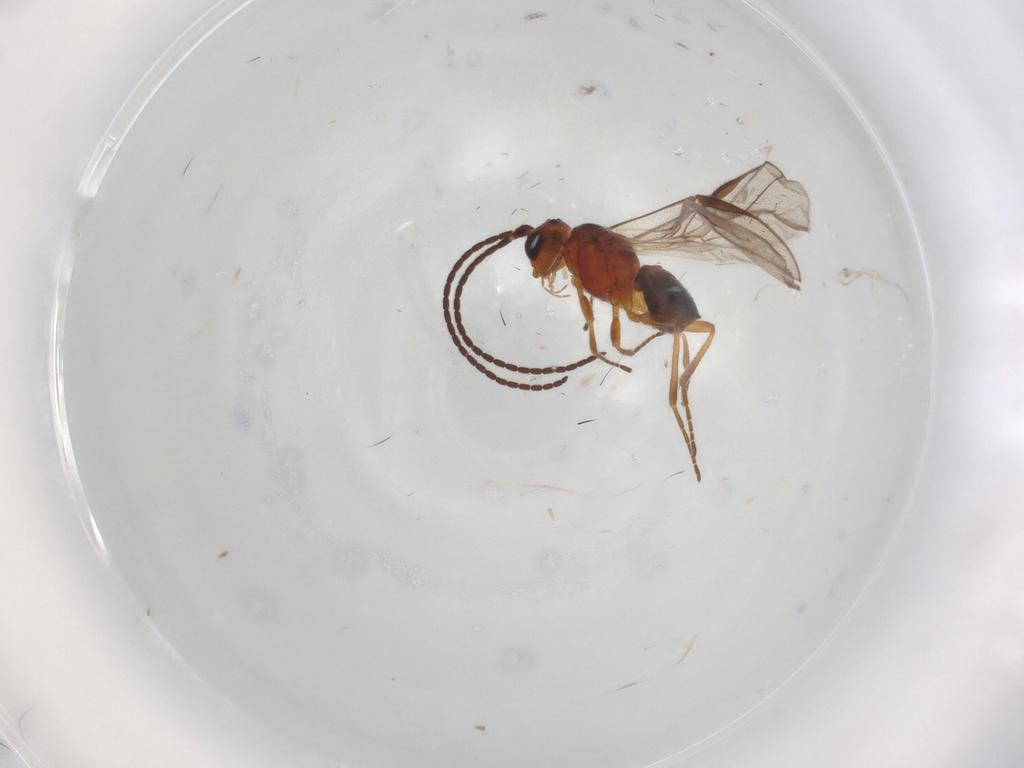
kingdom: Animalia
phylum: Arthropoda
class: Insecta
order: Hymenoptera
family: Braconidae
